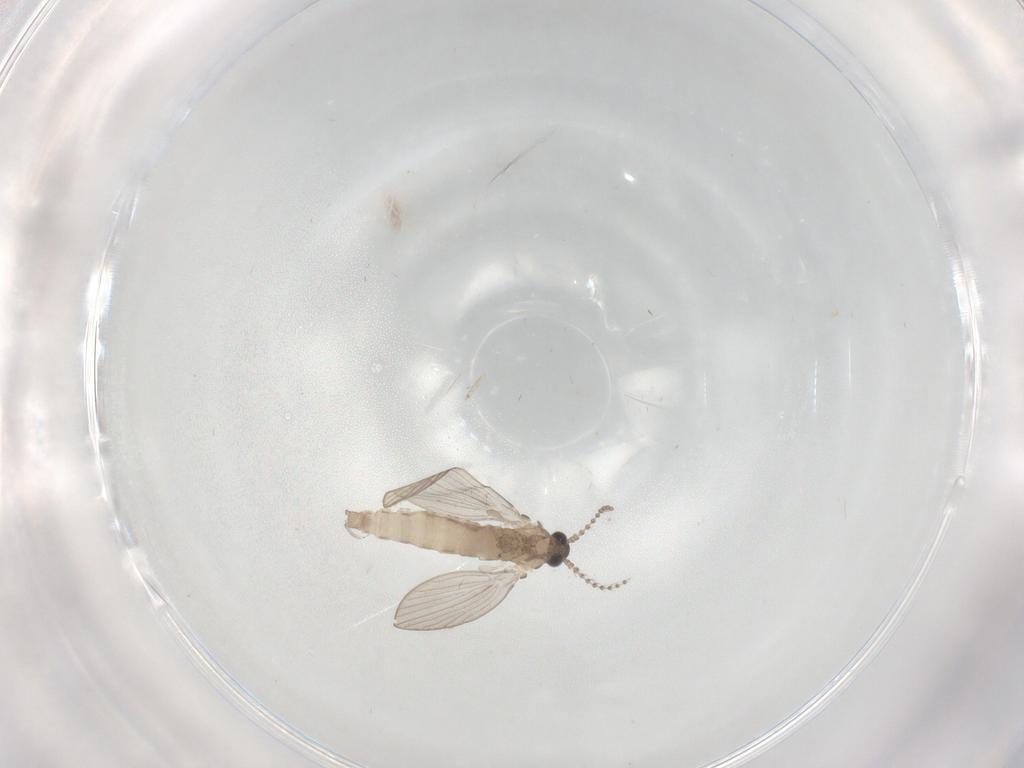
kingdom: Animalia
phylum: Arthropoda
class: Insecta
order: Diptera
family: Psychodidae
